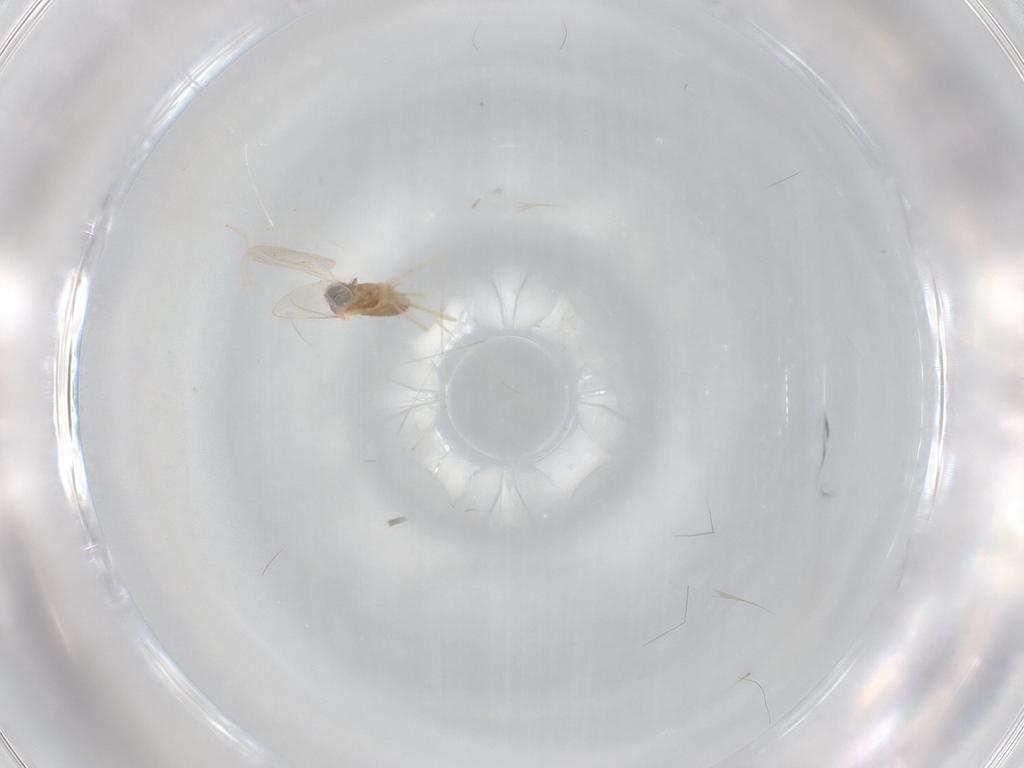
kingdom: Animalia
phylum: Arthropoda
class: Insecta
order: Diptera
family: Cecidomyiidae
